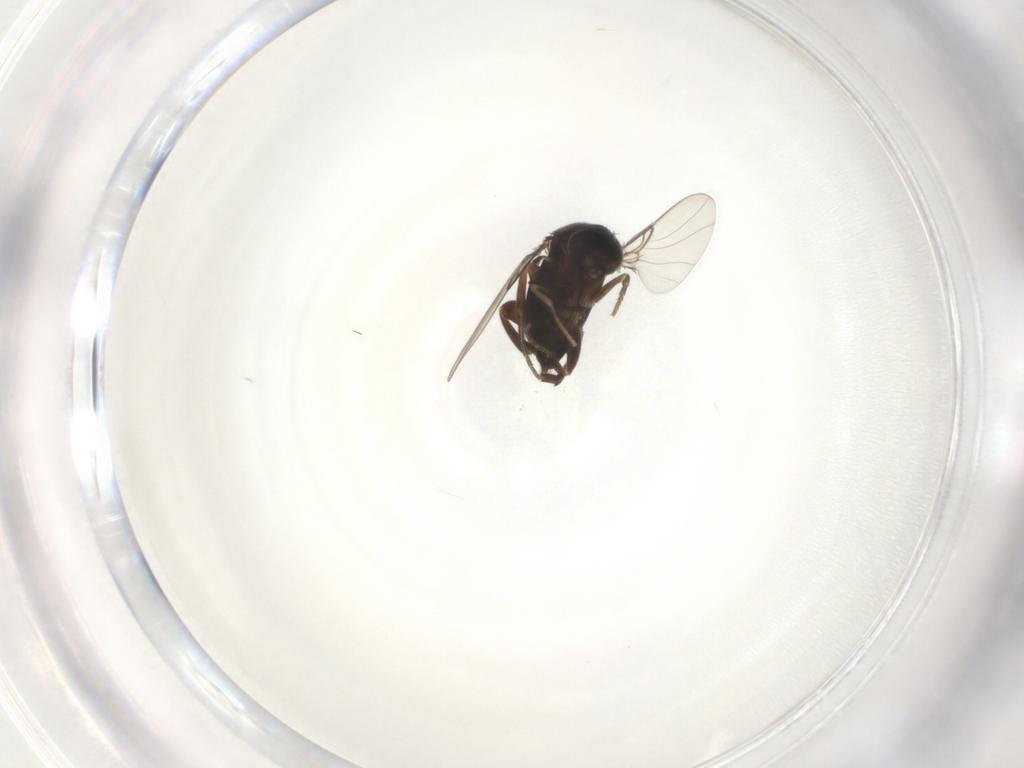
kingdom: Animalia
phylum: Arthropoda
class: Insecta
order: Diptera
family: Phoridae
